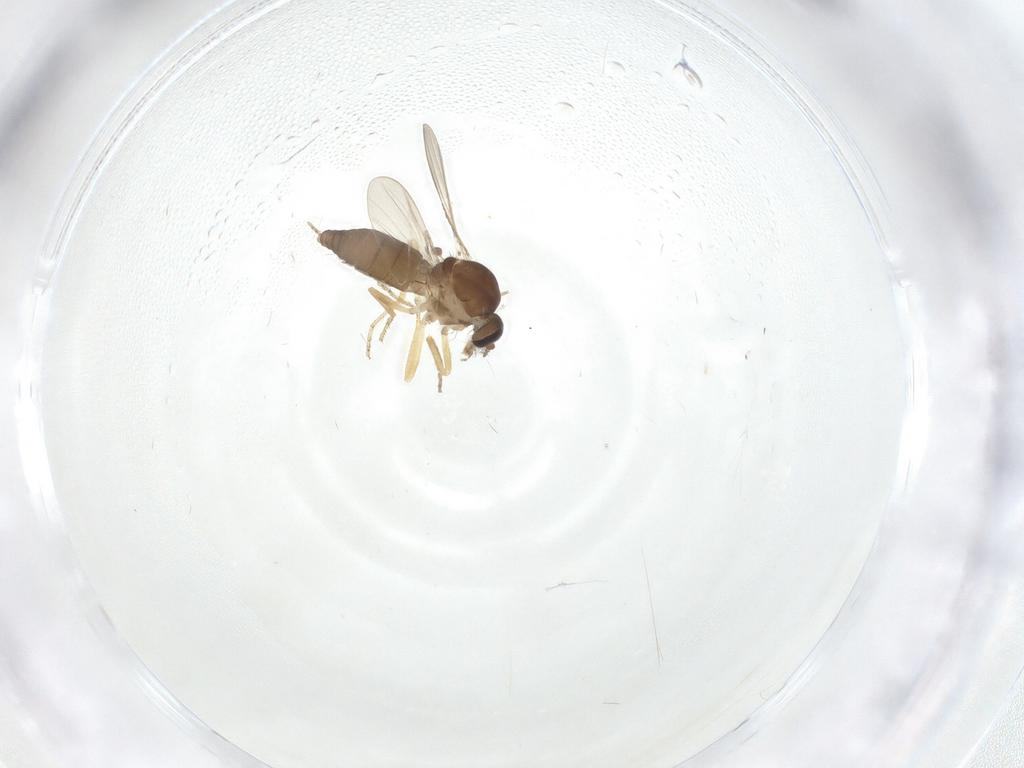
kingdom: Animalia
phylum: Arthropoda
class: Insecta
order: Diptera
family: Ceratopogonidae
